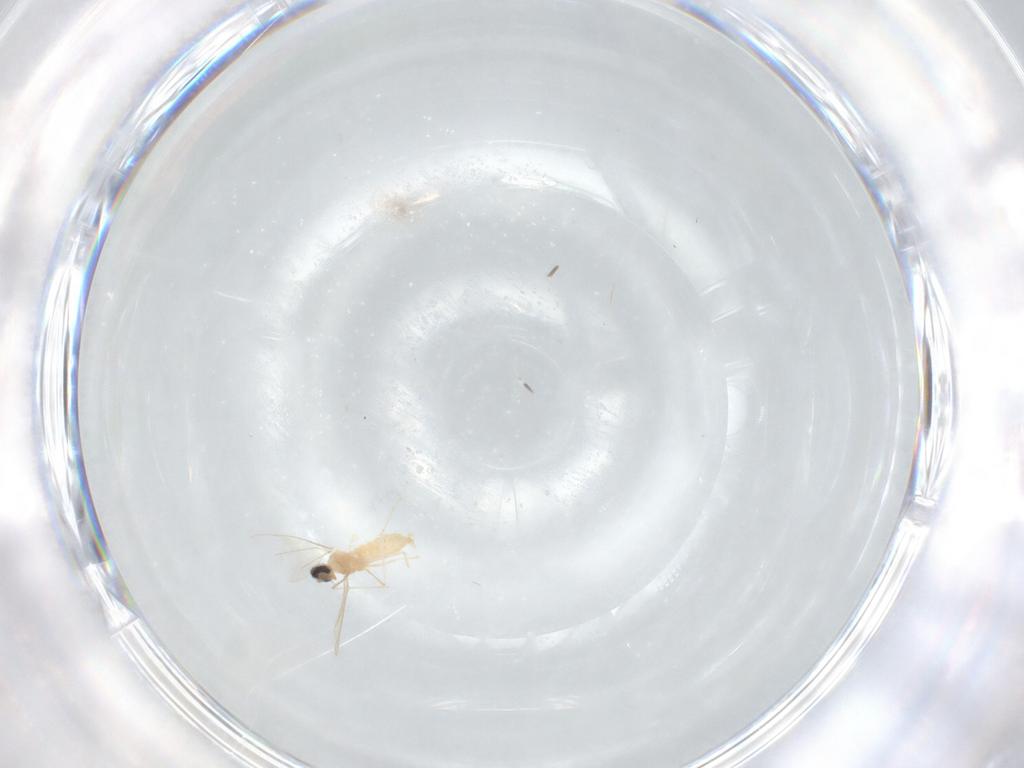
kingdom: Animalia
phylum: Arthropoda
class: Insecta
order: Diptera
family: Cecidomyiidae
